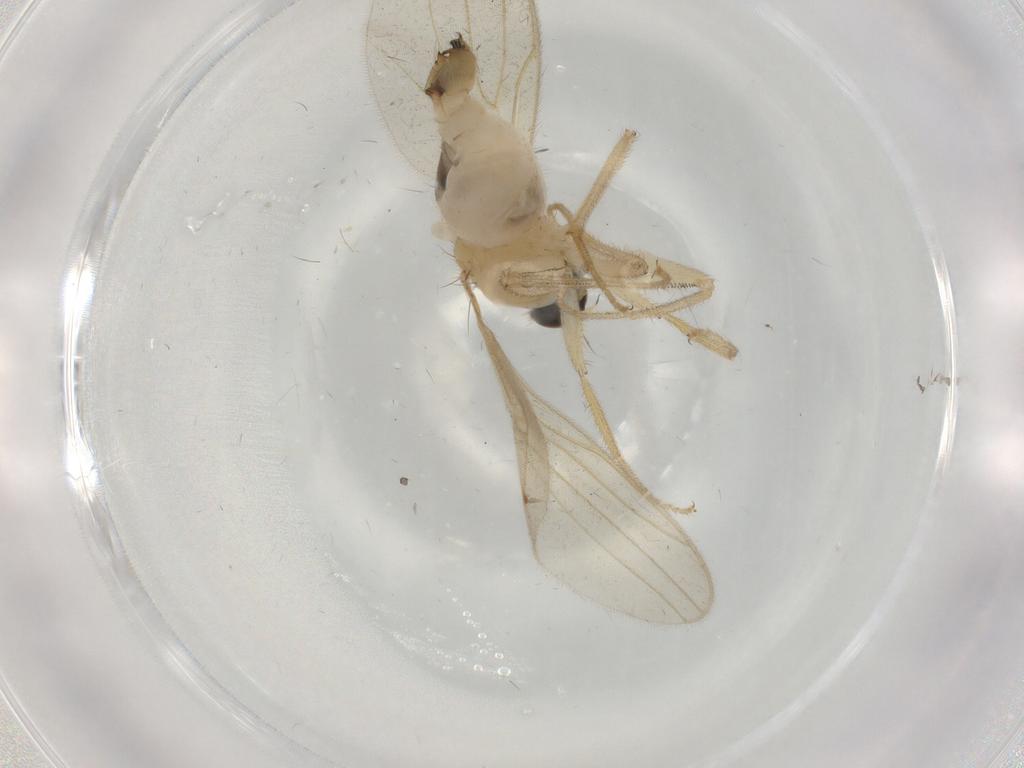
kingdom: Animalia
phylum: Arthropoda
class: Insecta
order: Diptera
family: Hybotidae
